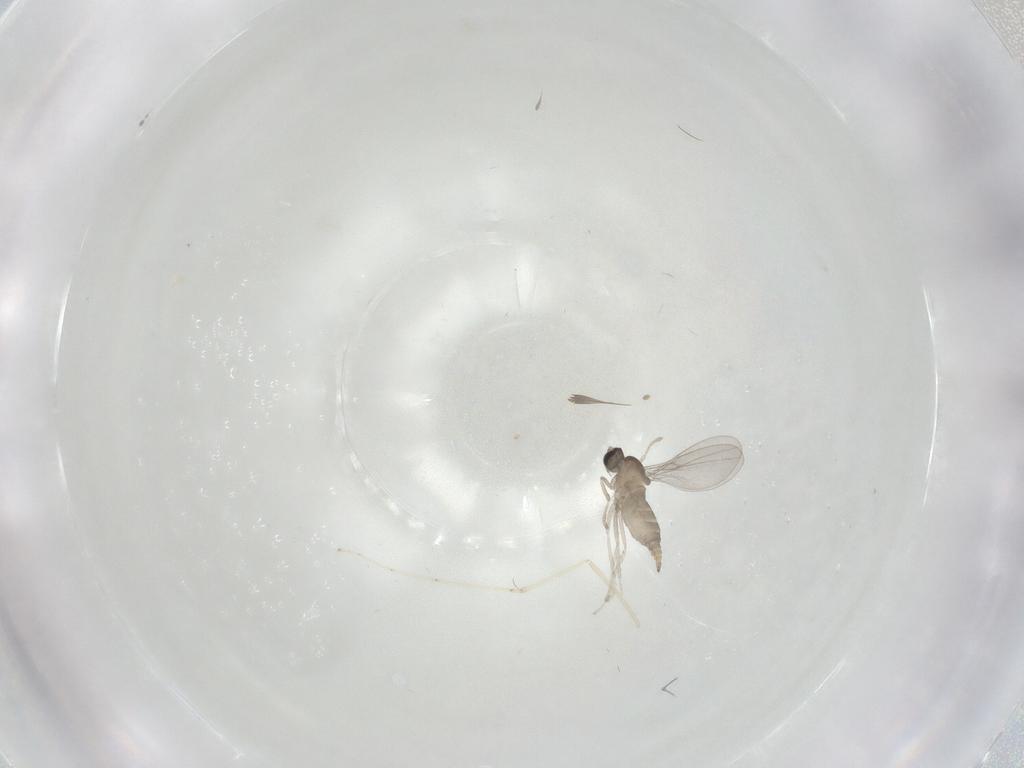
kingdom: Animalia
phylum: Arthropoda
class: Insecta
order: Diptera
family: Cecidomyiidae
